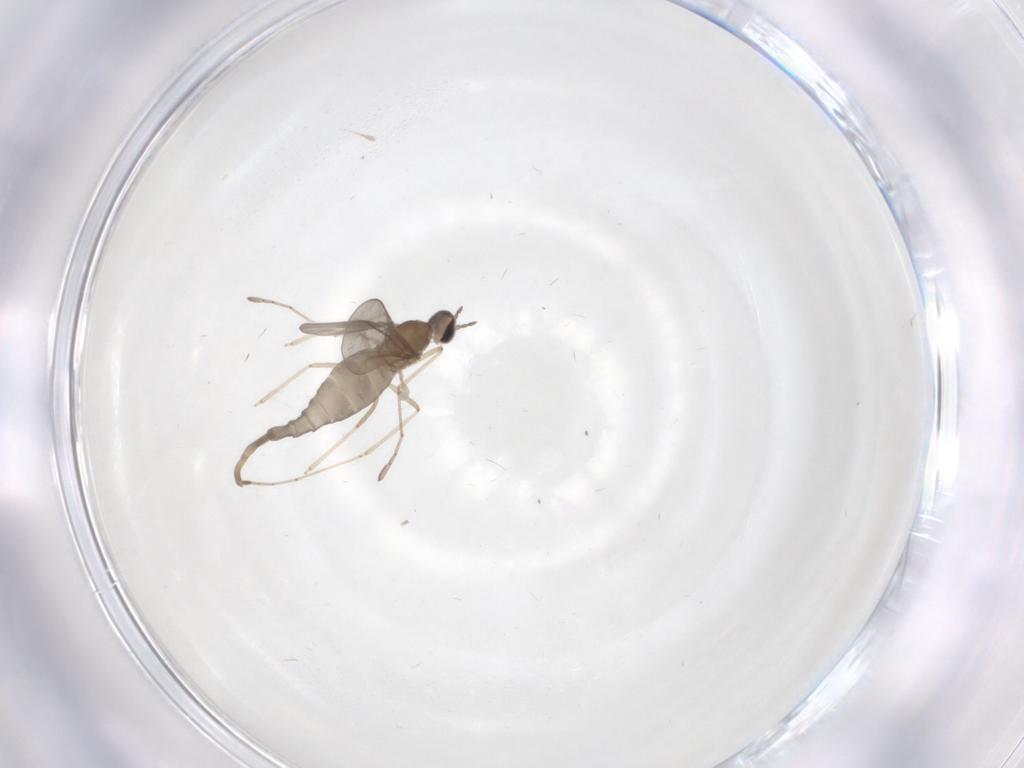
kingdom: Animalia
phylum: Arthropoda
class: Insecta
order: Diptera
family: Cecidomyiidae
